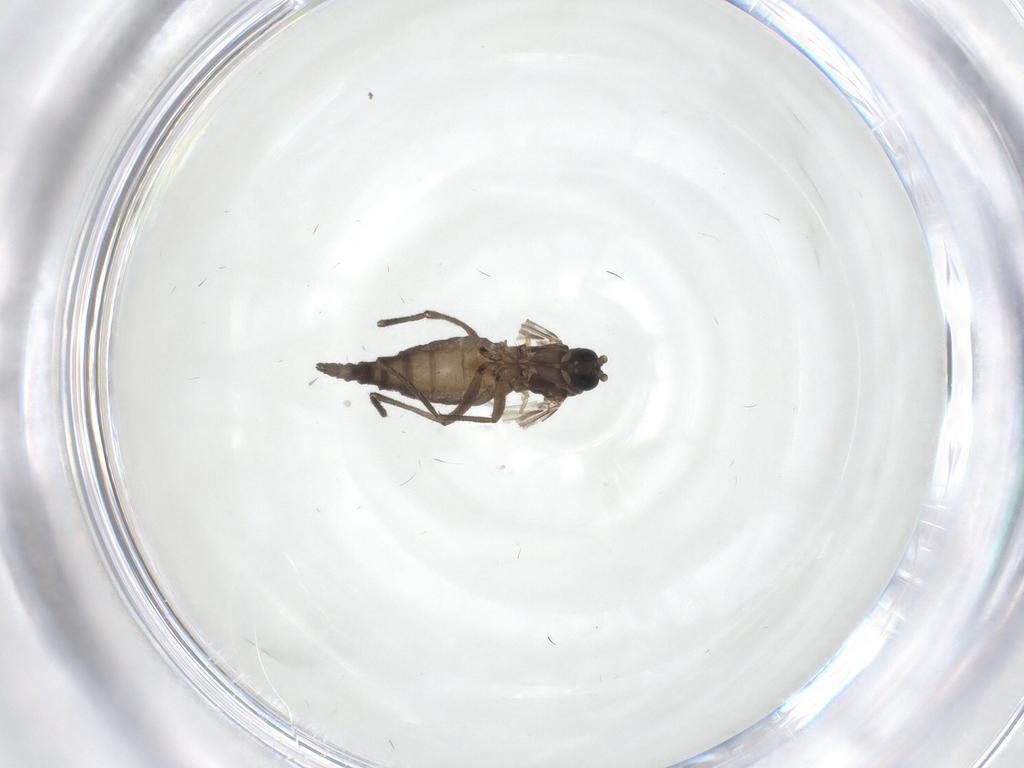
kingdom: Animalia
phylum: Arthropoda
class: Insecta
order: Diptera
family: Sciaridae
